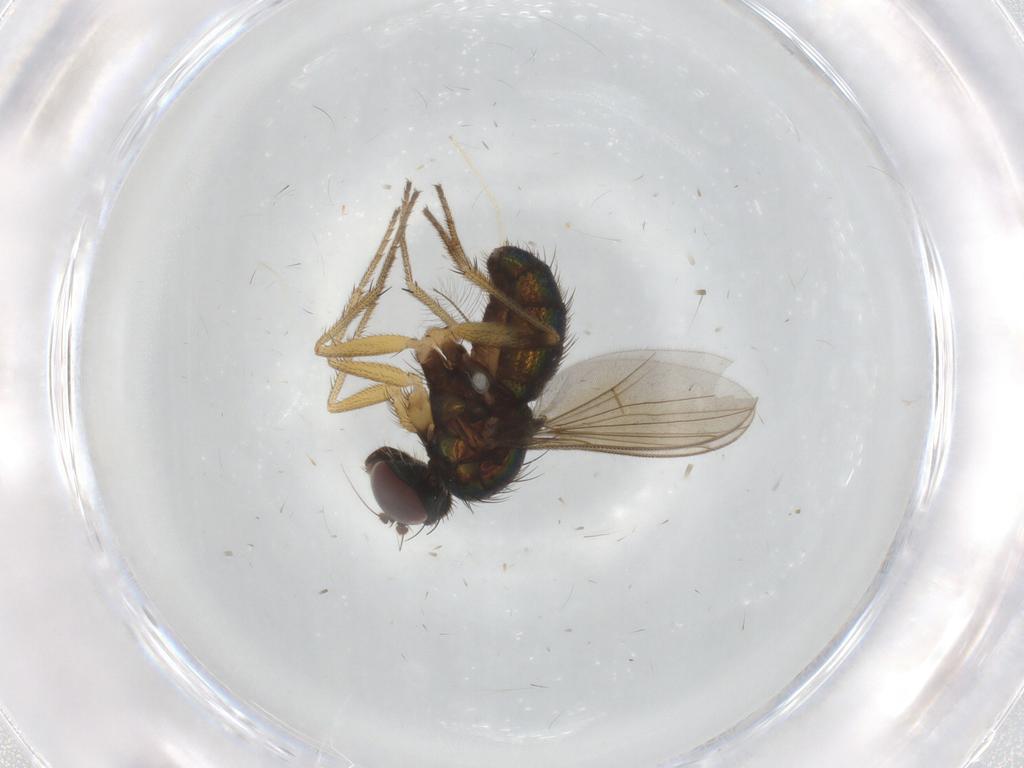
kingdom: Animalia
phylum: Arthropoda
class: Insecta
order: Diptera
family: Dolichopodidae
